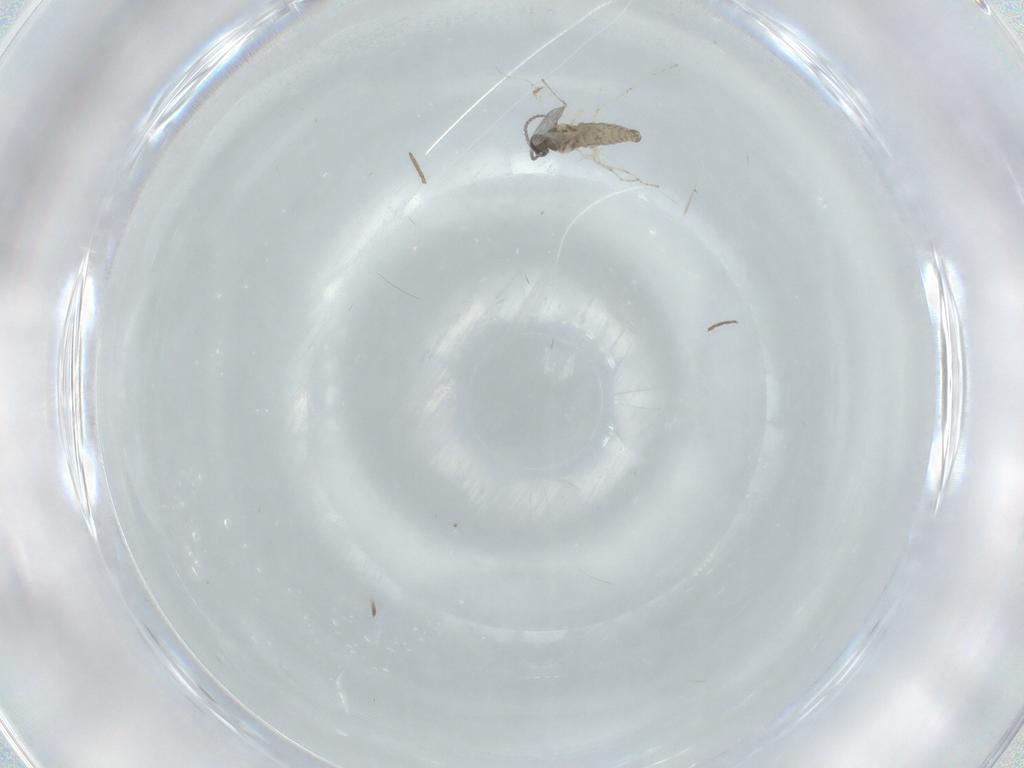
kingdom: Animalia
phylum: Arthropoda
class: Insecta
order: Diptera
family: Cecidomyiidae
